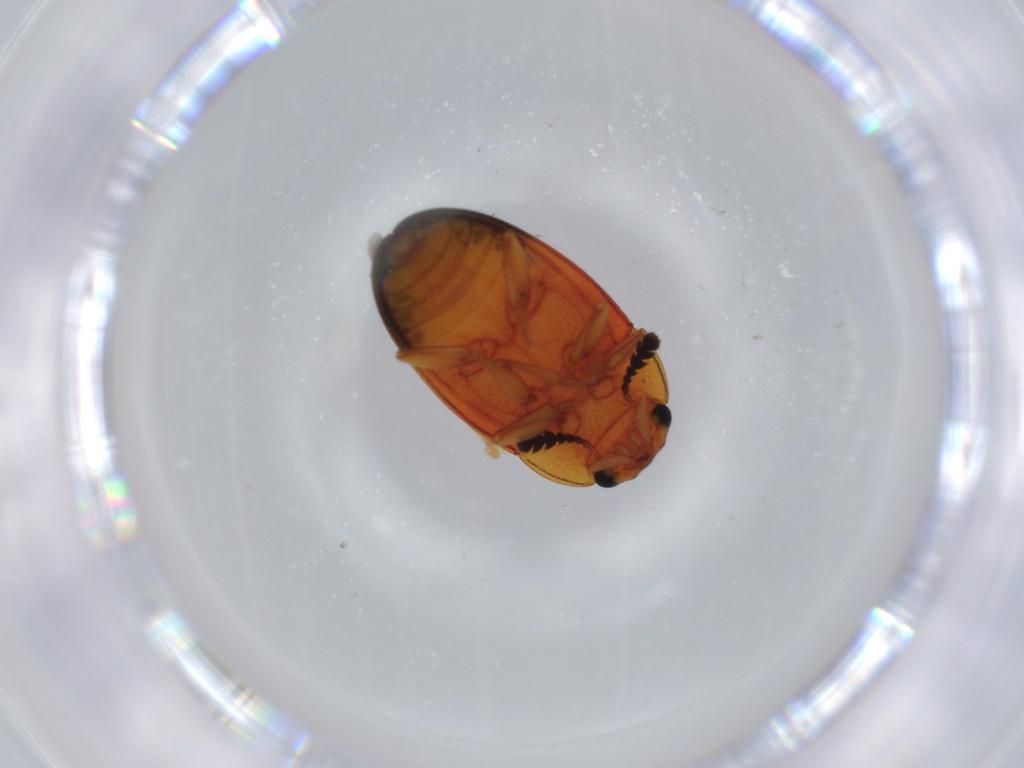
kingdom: Animalia
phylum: Arthropoda
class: Insecta
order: Coleoptera
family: Erotylidae
